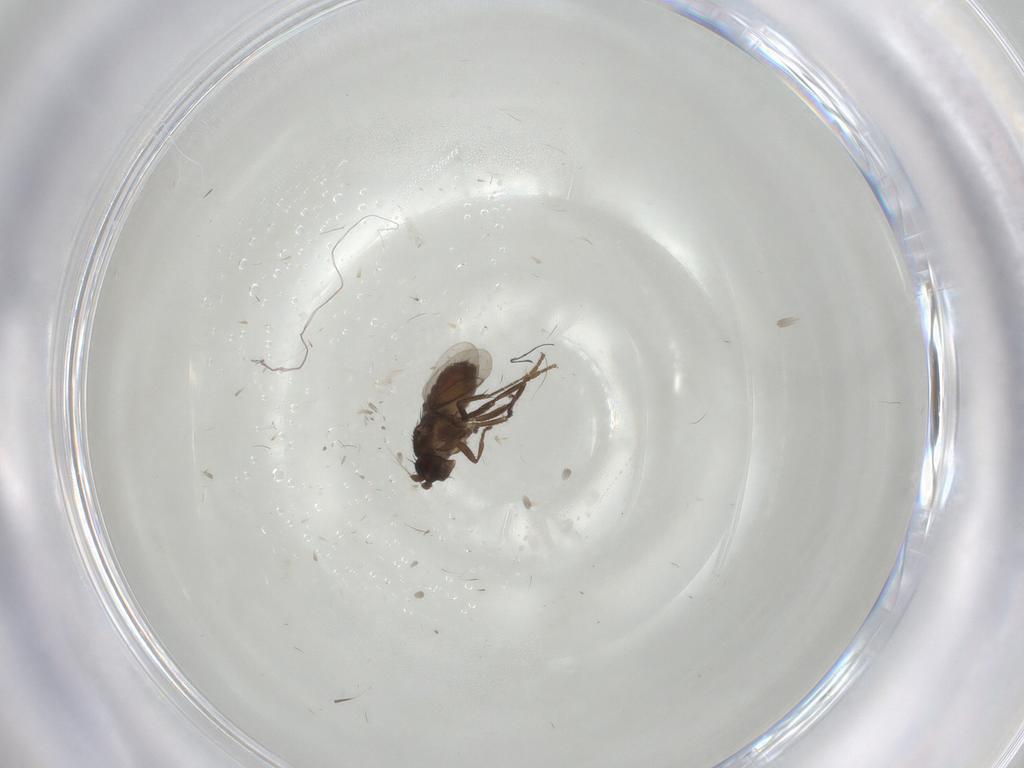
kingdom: Animalia
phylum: Arthropoda
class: Insecta
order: Diptera
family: Sphaeroceridae
